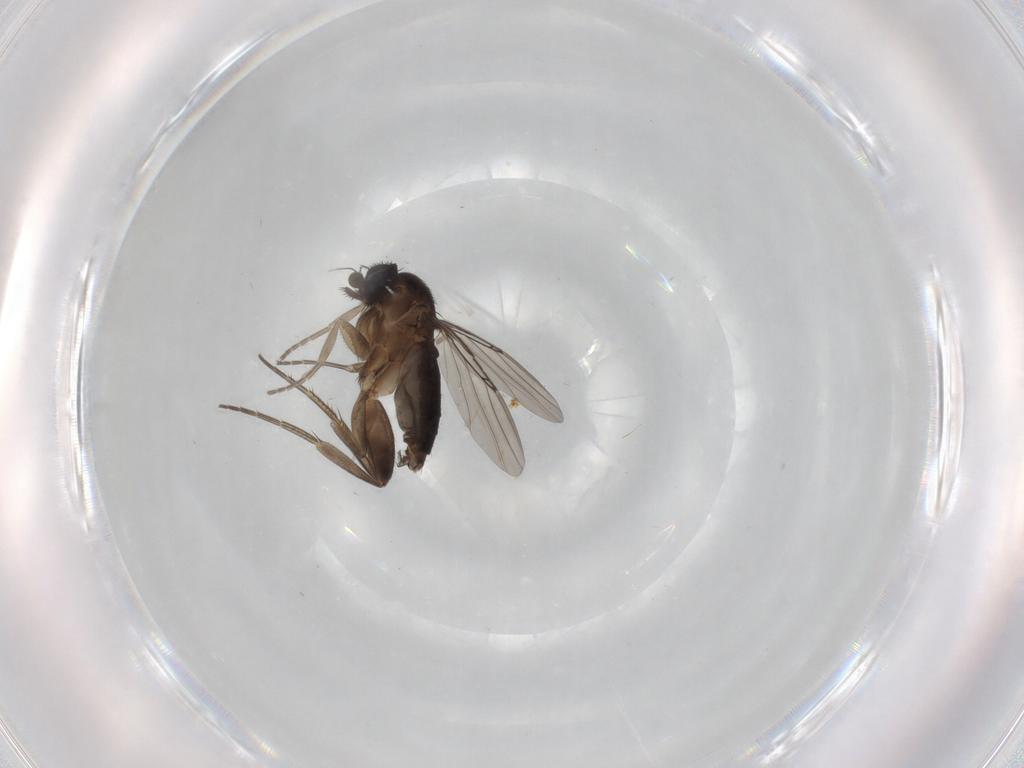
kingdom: Animalia
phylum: Arthropoda
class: Insecta
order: Diptera
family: Phoridae
